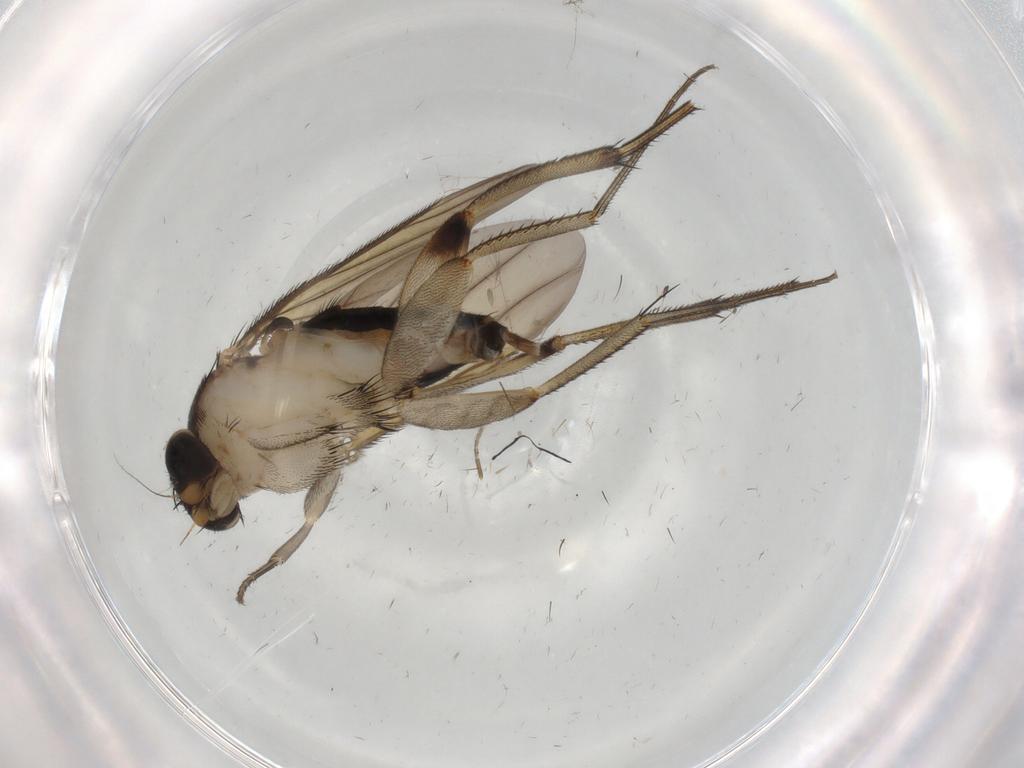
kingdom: Animalia
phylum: Arthropoda
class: Insecta
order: Diptera
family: Phoridae
